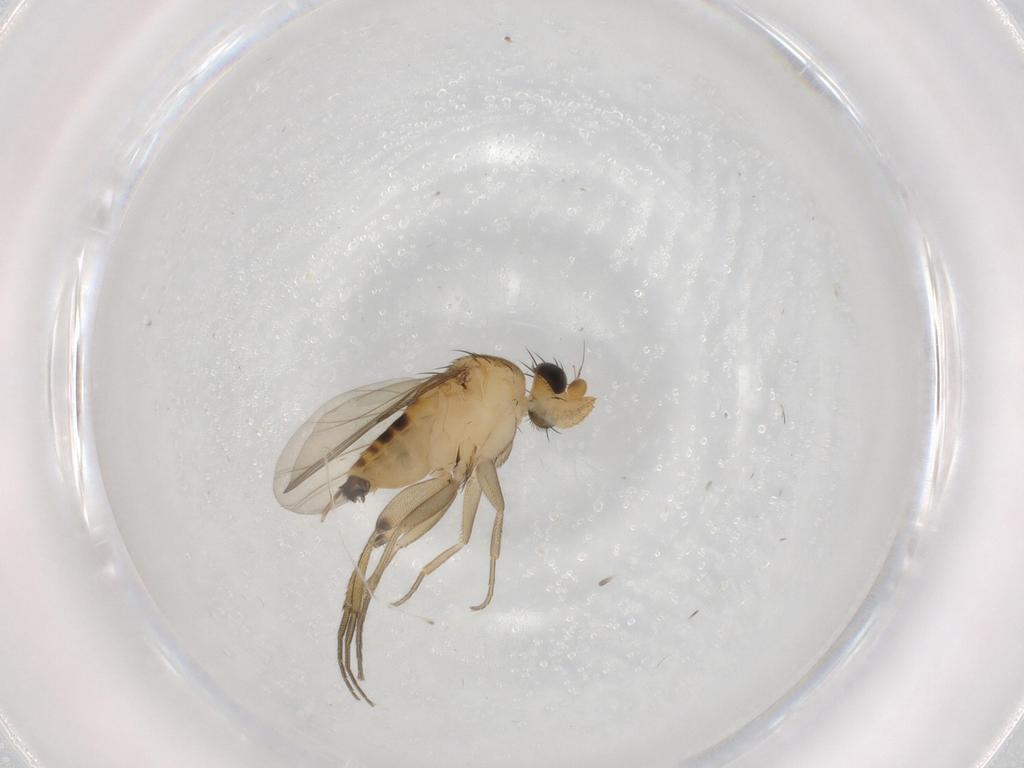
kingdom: Animalia
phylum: Arthropoda
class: Insecta
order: Diptera
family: Phoridae
